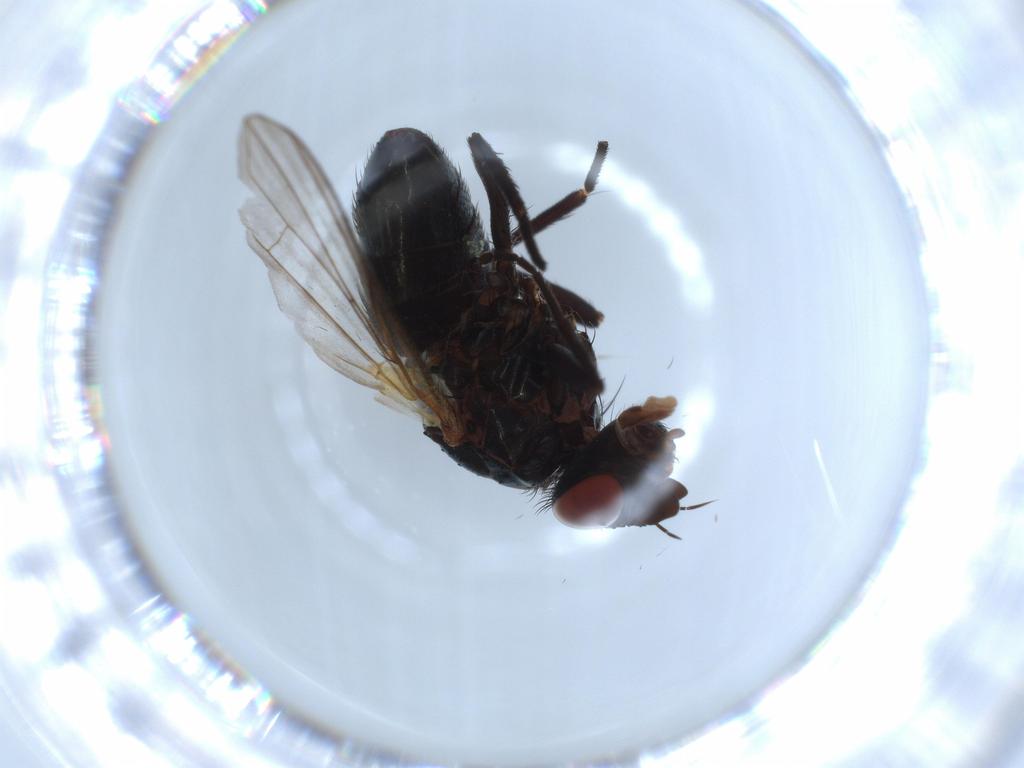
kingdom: Animalia
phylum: Arthropoda
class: Insecta
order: Diptera
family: Tachinidae
